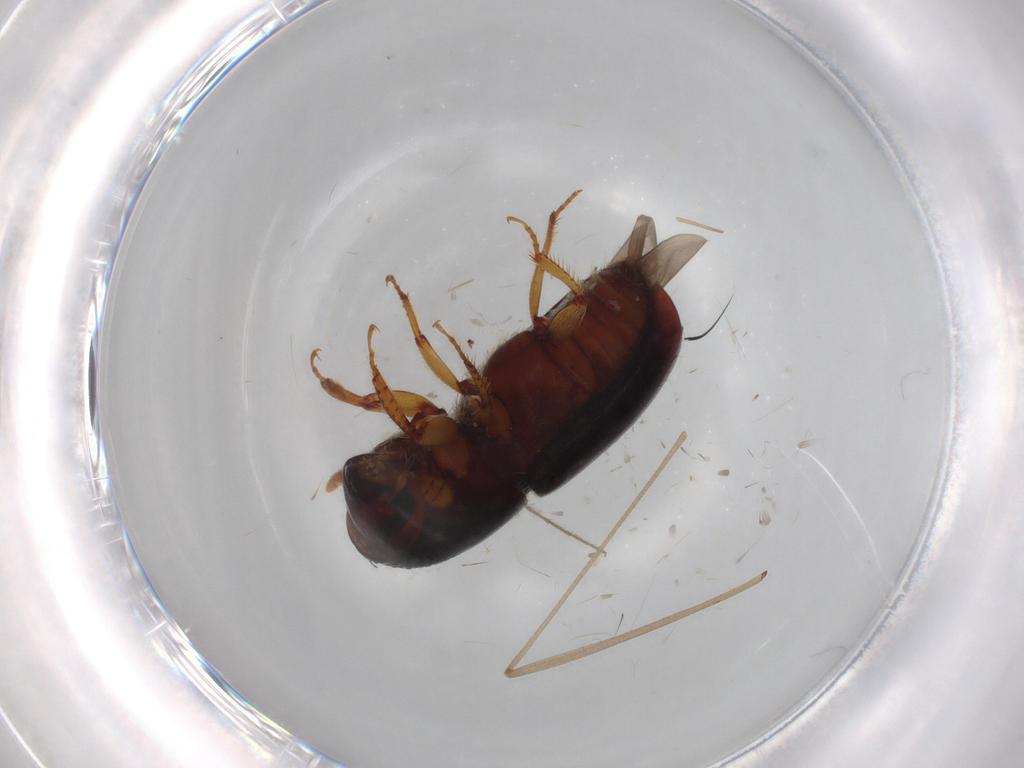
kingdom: Animalia
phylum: Arthropoda
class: Insecta
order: Coleoptera
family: Curculionidae
